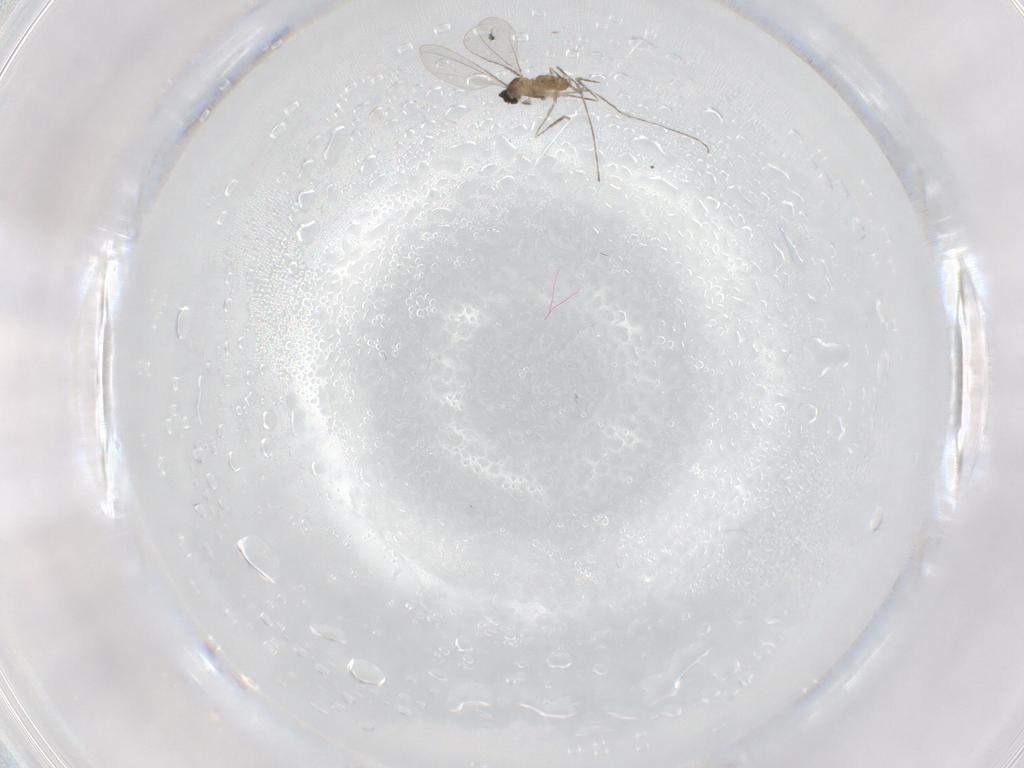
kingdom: Animalia
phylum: Arthropoda
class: Insecta
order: Diptera
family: Cecidomyiidae
